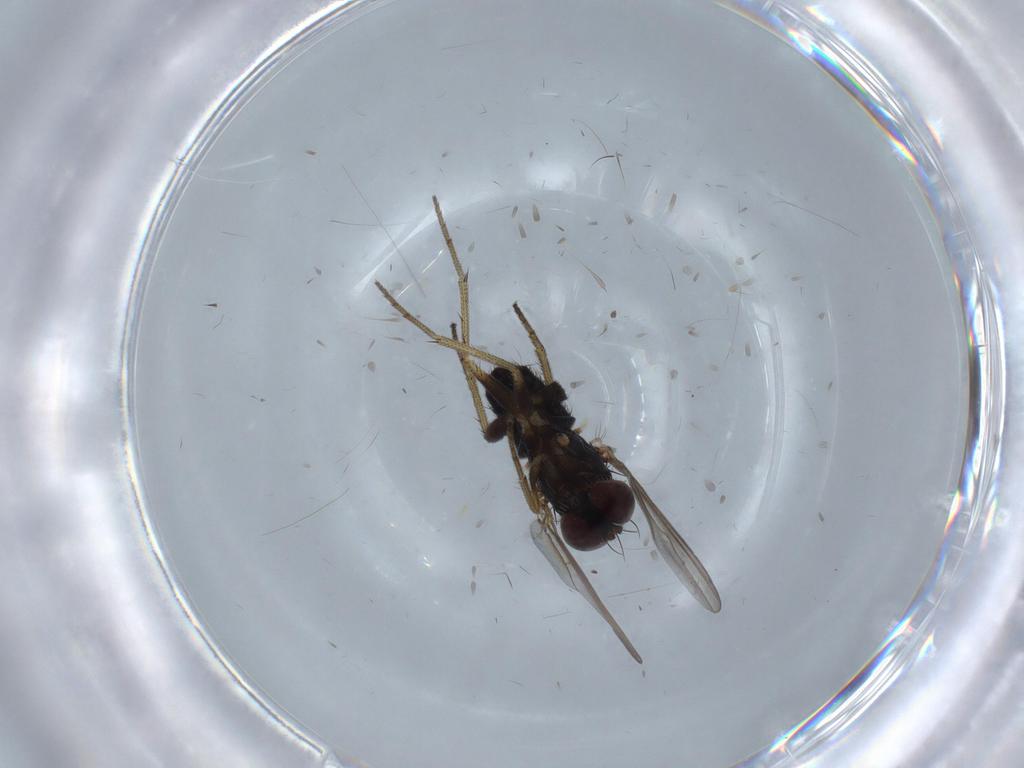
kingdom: Animalia
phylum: Arthropoda
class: Insecta
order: Diptera
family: Dolichopodidae
